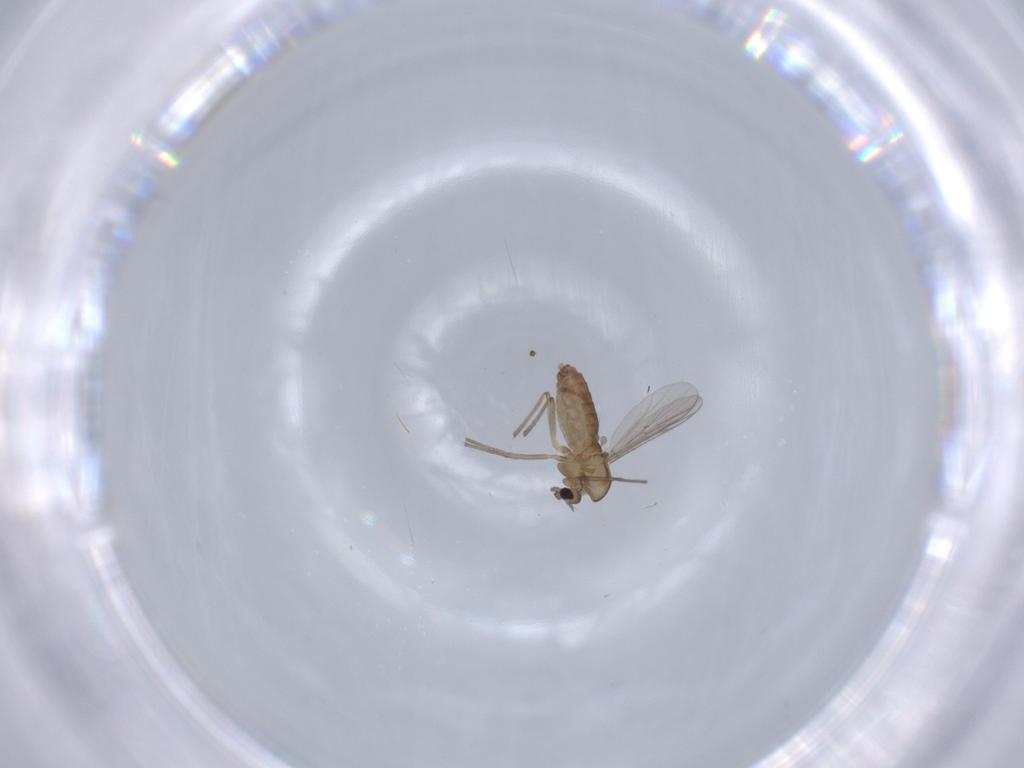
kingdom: Animalia
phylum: Arthropoda
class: Insecta
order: Diptera
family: Chironomidae
